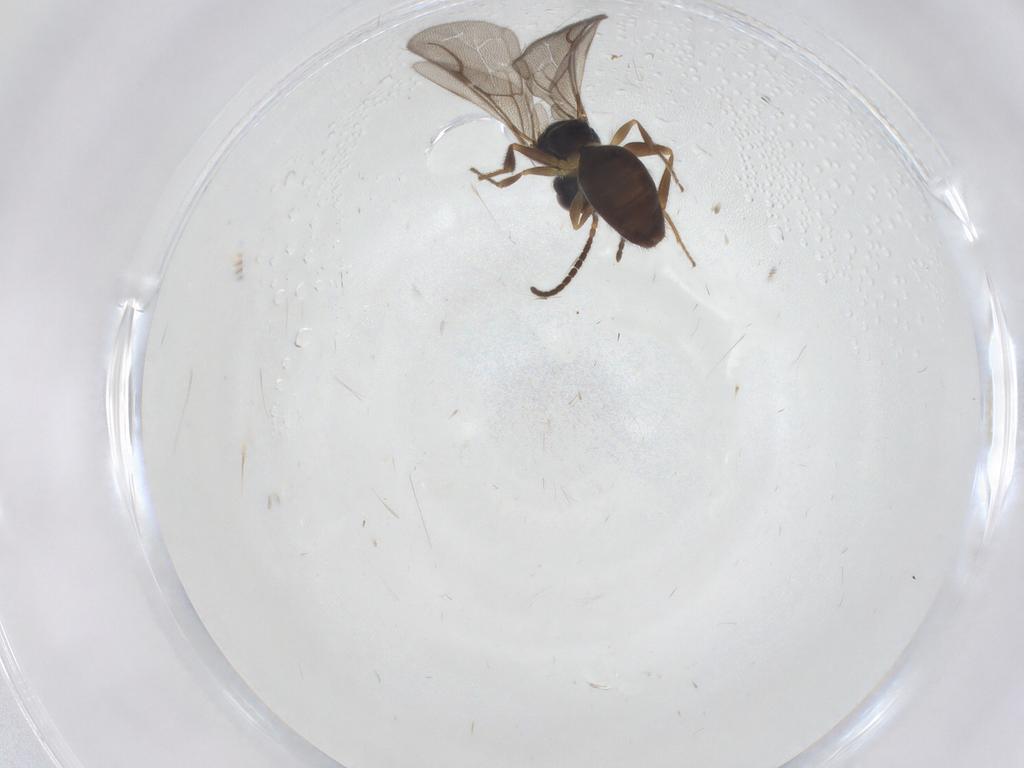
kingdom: Animalia
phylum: Arthropoda
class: Insecta
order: Hymenoptera
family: Bethylidae
